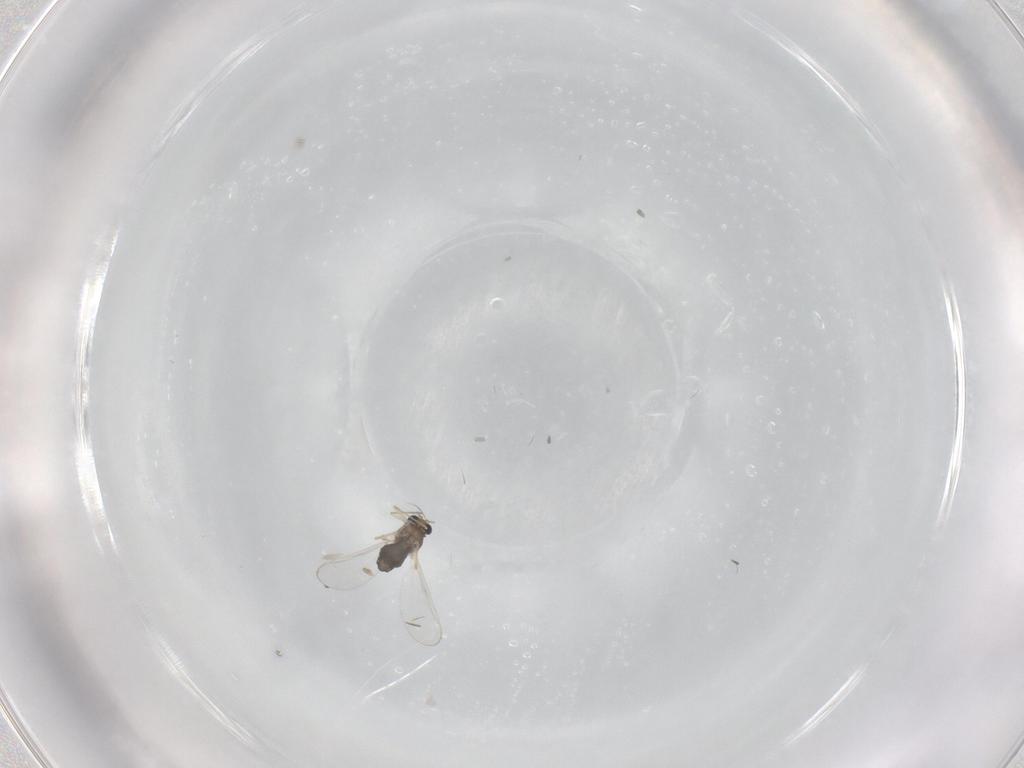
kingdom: Animalia
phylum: Arthropoda
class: Insecta
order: Diptera
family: Chironomidae
